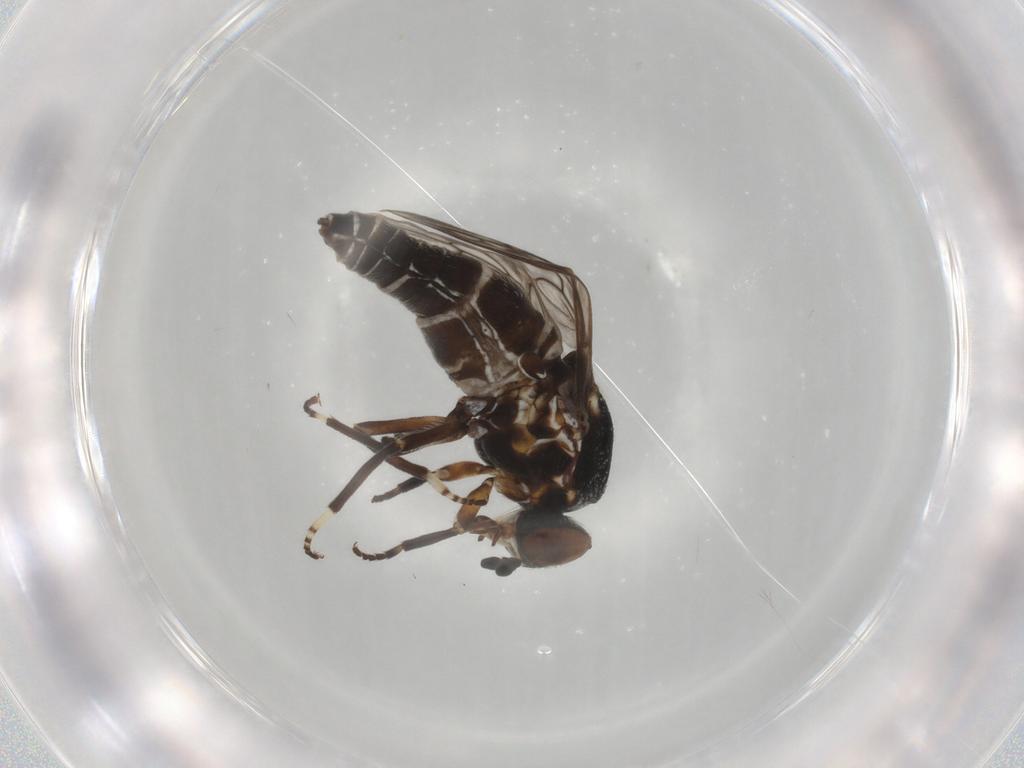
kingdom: Animalia
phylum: Arthropoda
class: Insecta
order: Diptera
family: Scenopinidae
